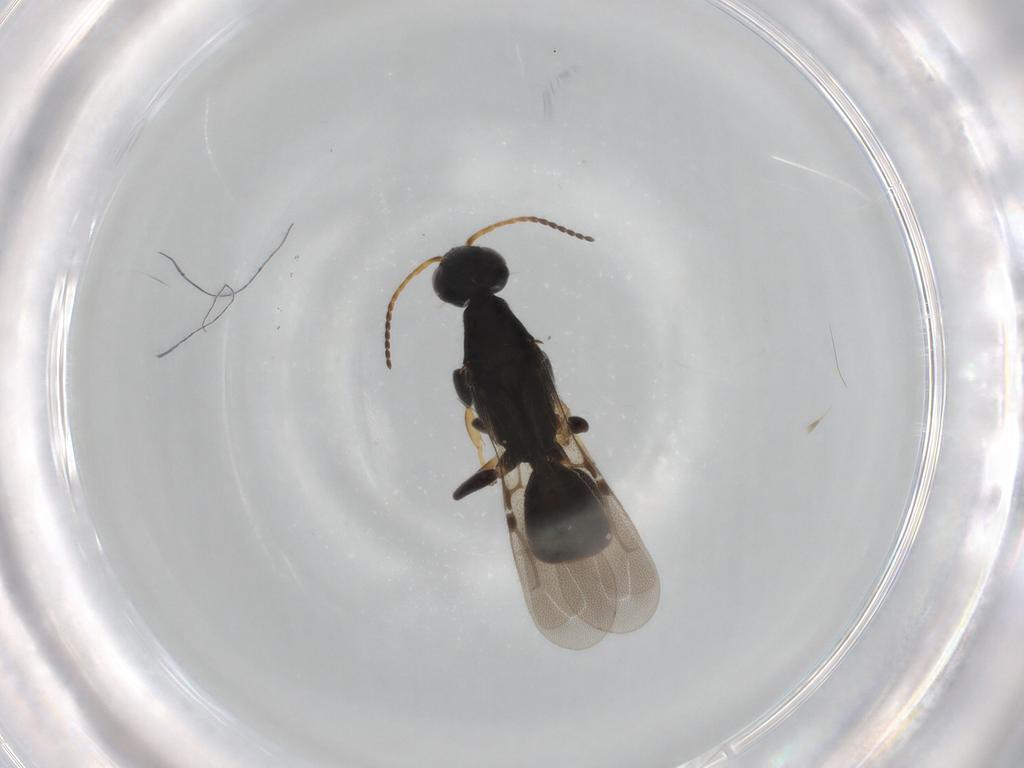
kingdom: Animalia
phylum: Arthropoda
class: Insecta
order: Hymenoptera
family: Bethylidae
